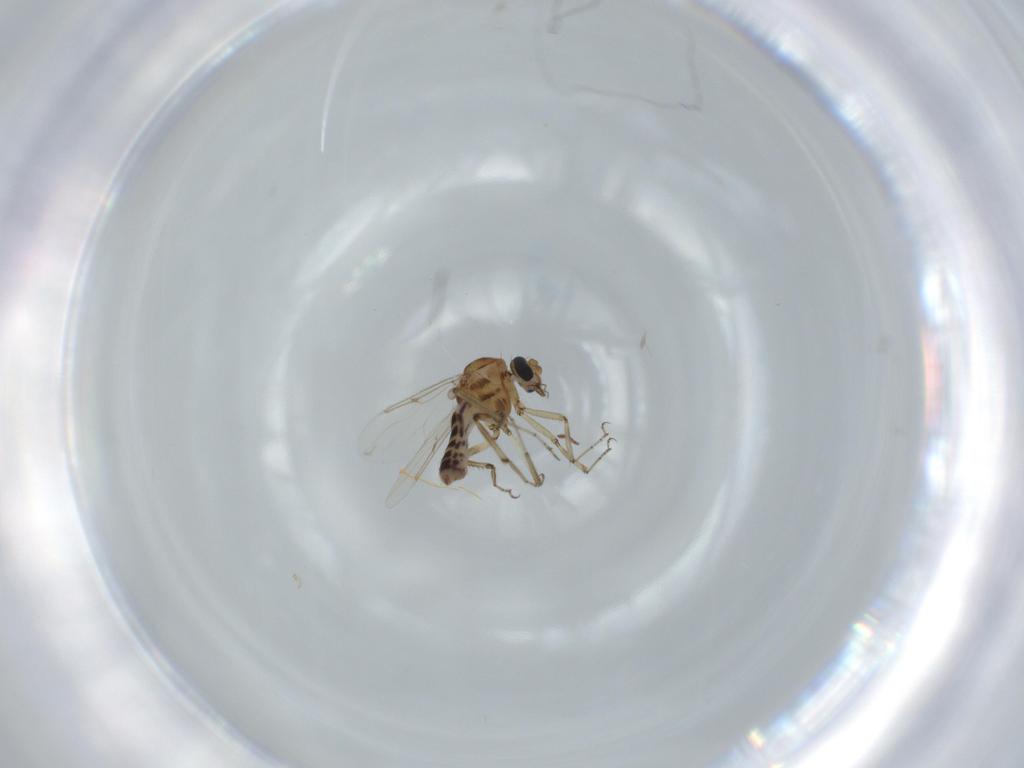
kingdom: Animalia
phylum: Arthropoda
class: Insecta
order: Diptera
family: Ceratopogonidae
